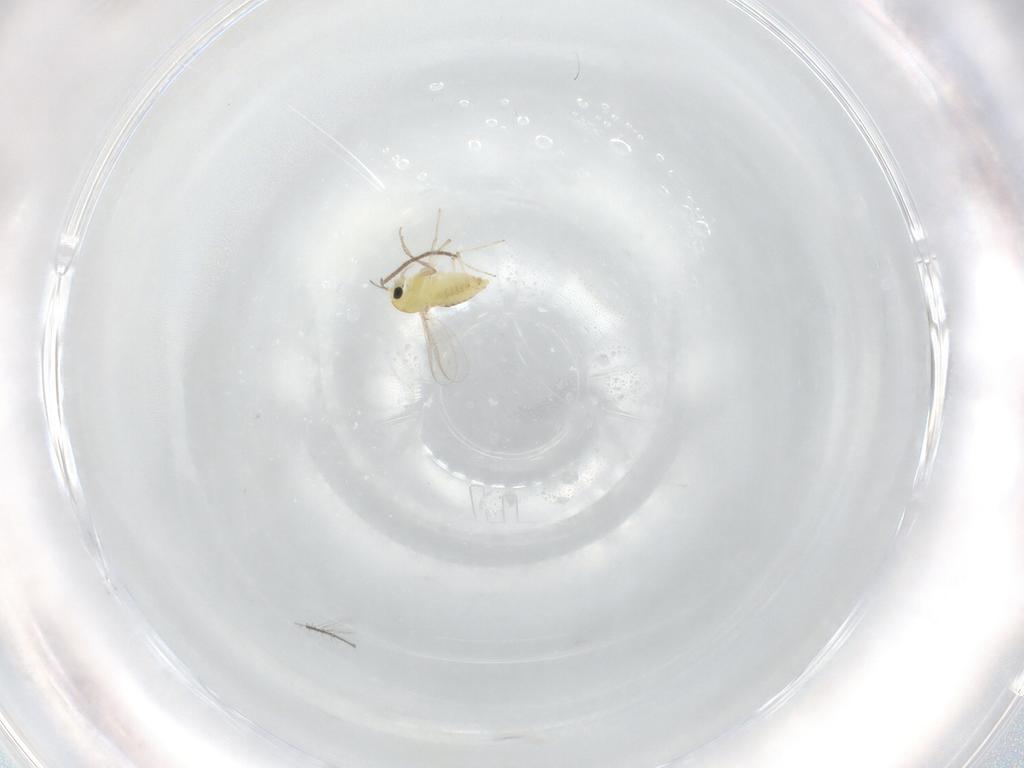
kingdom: Animalia
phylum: Arthropoda
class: Insecta
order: Diptera
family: Chironomidae
